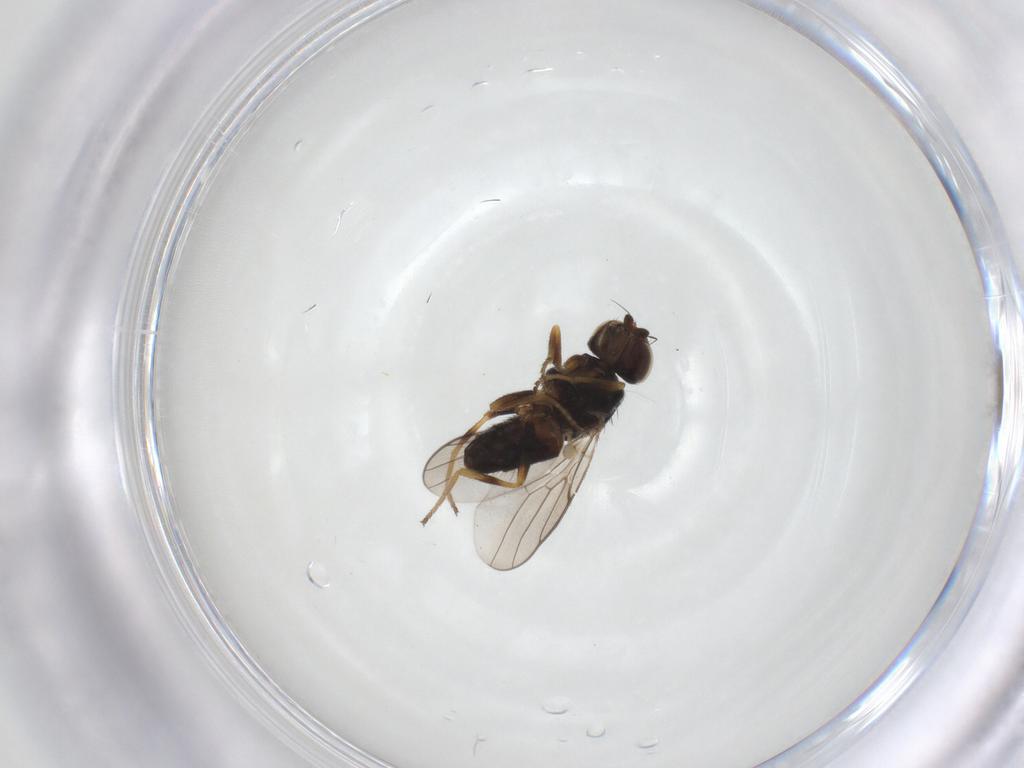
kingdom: Animalia
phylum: Arthropoda
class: Insecta
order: Diptera
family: Chloropidae
